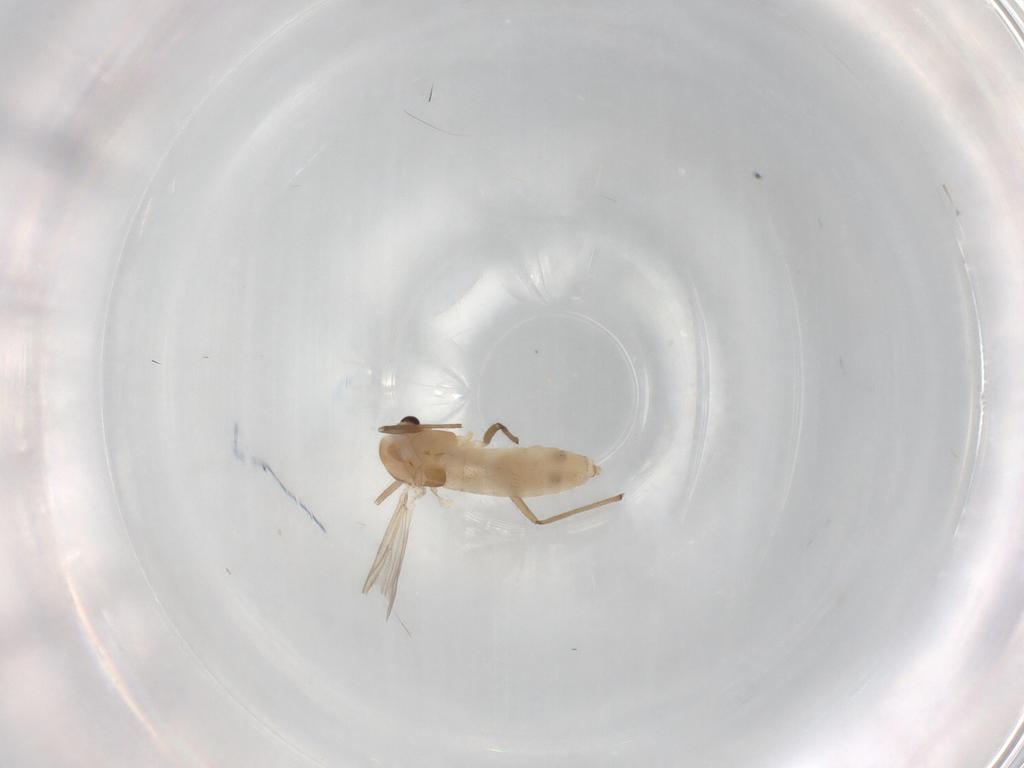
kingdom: Animalia
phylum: Arthropoda
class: Insecta
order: Diptera
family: Chironomidae
